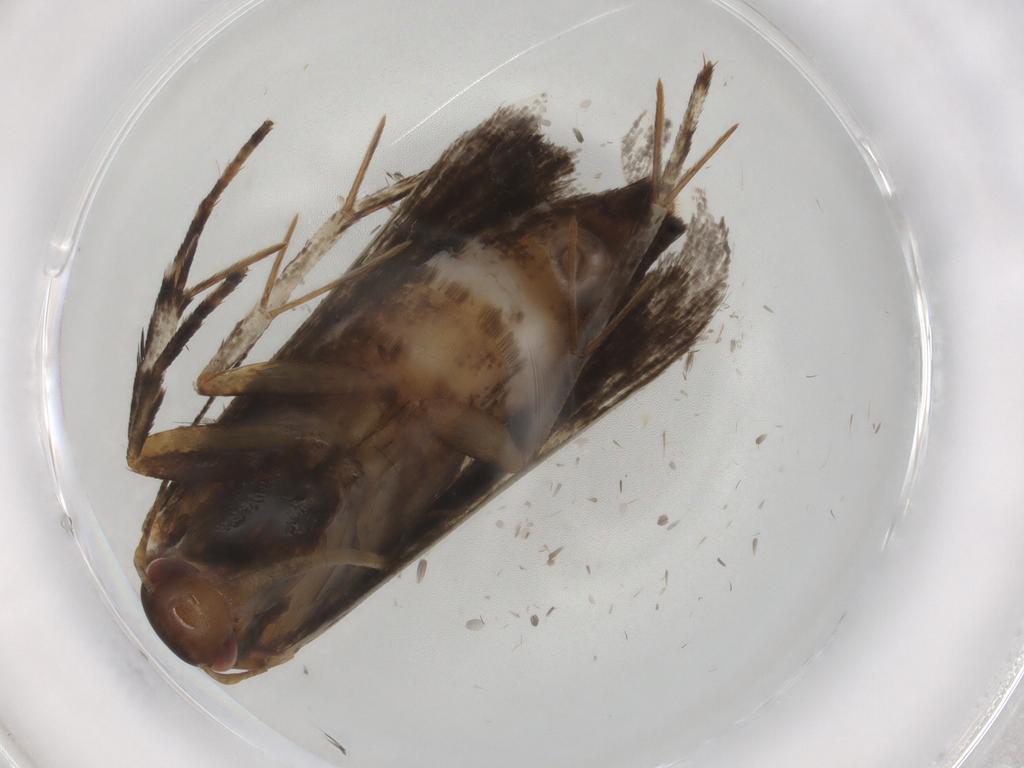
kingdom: Animalia
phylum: Arthropoda
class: Insecta
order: Lepidoptera
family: Gelechiidae
